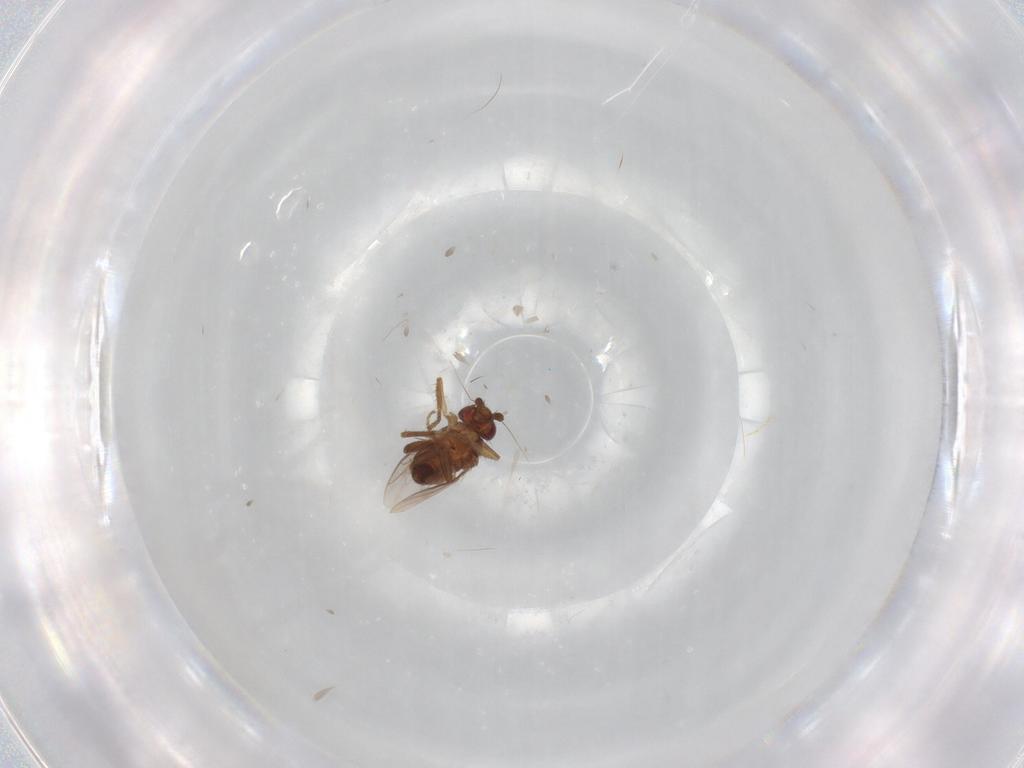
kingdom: Animalia
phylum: Arthropoda
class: Insecta
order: Diptera
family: Sphaeroceridae
